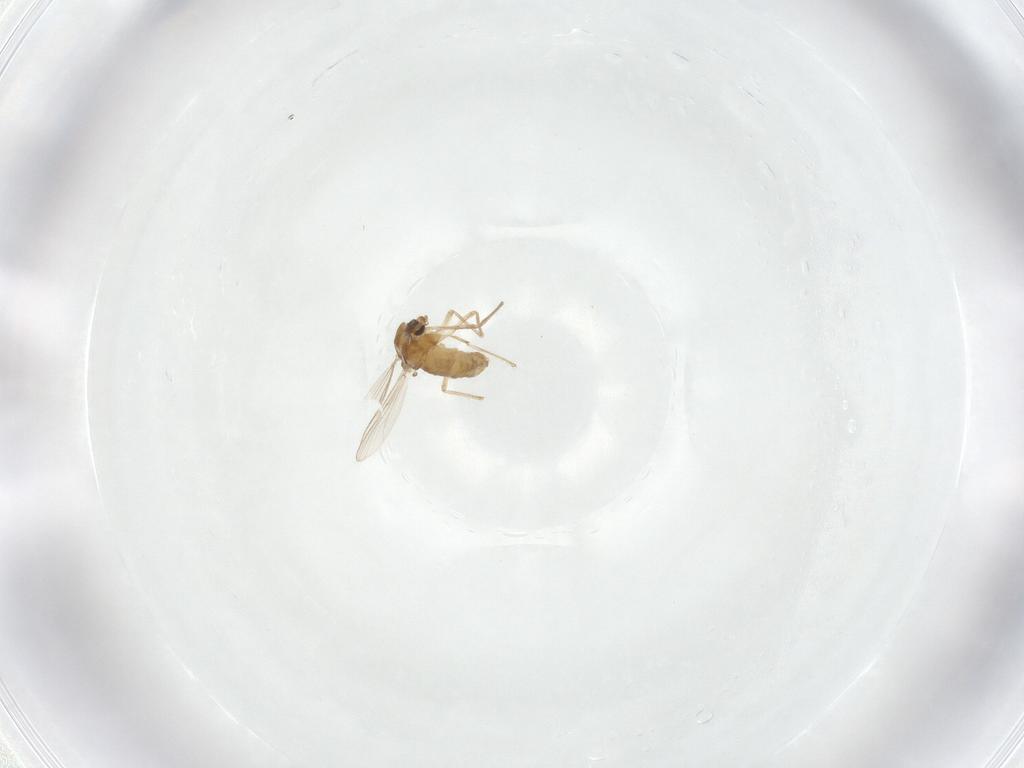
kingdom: Animalia
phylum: Arthropoda
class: Insecta
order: Diptera
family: Chironomidae
